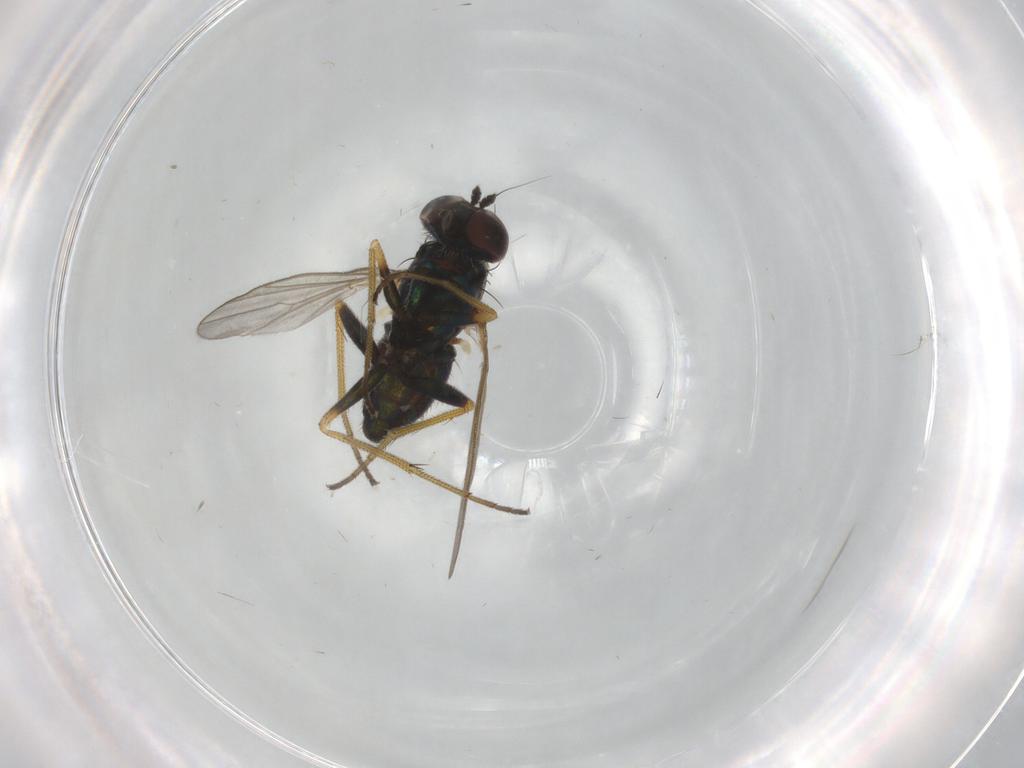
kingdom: Animalia
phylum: Arthropoda
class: Insecta
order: Diptera
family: Dolichopodidae
